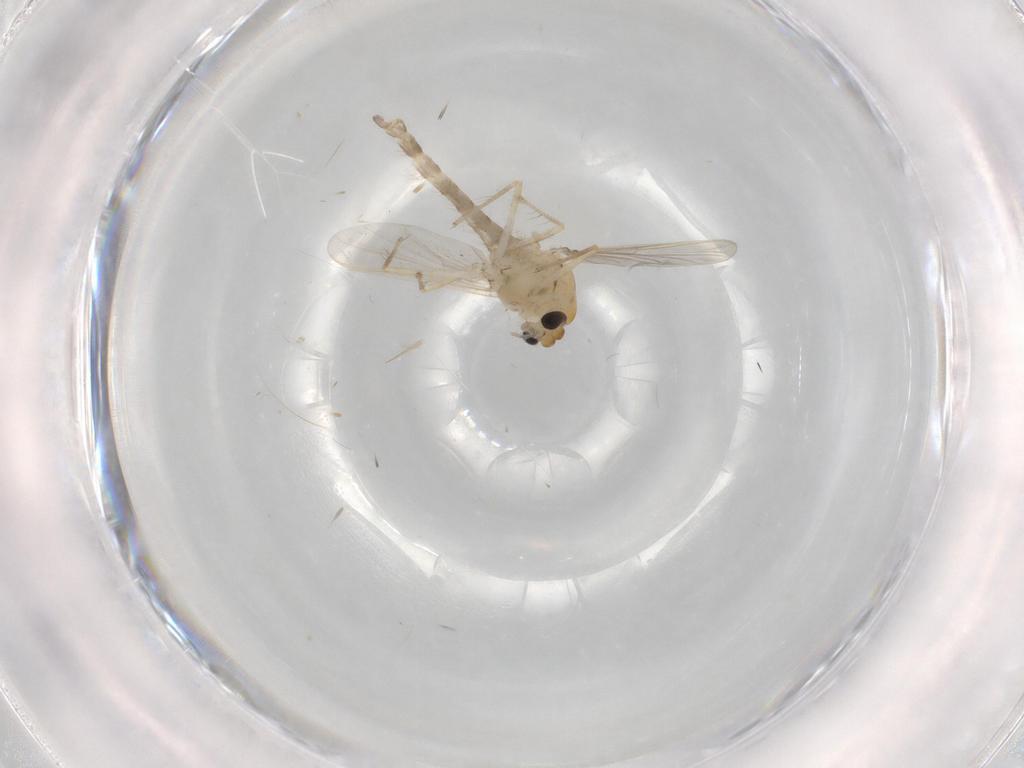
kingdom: Animalia
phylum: Arthropoda
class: Insecta
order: Diptera
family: Chironomidae
